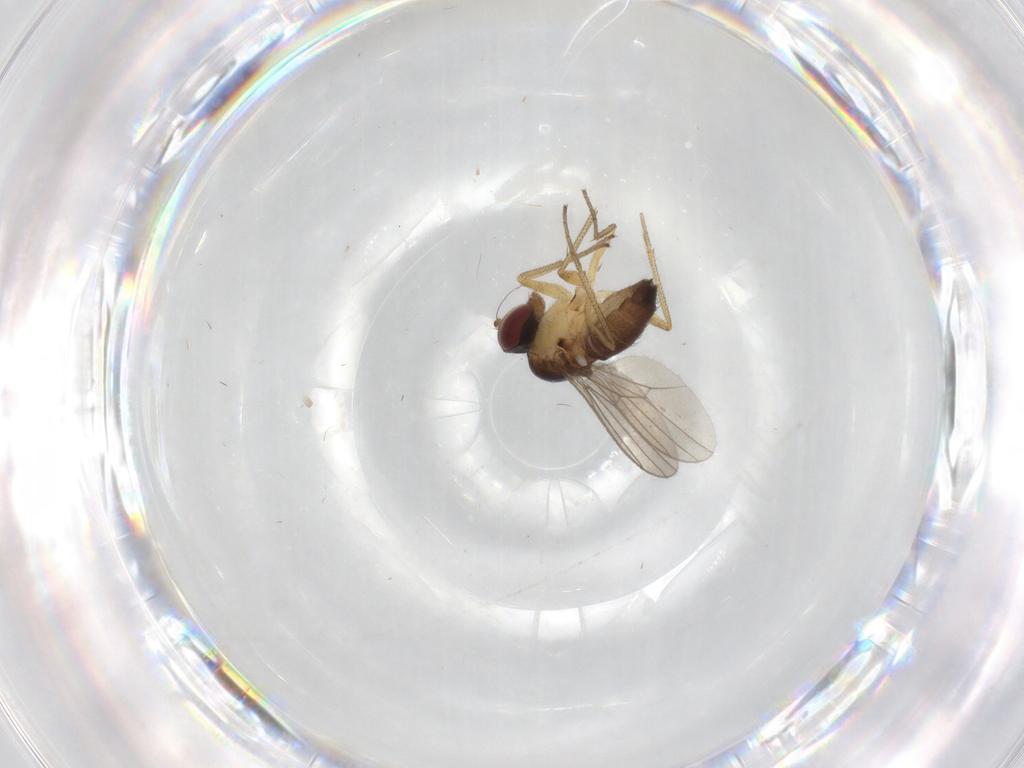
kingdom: Animalia
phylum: Arthropoda
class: Insecta
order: Diptera
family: Dolichopodidae
